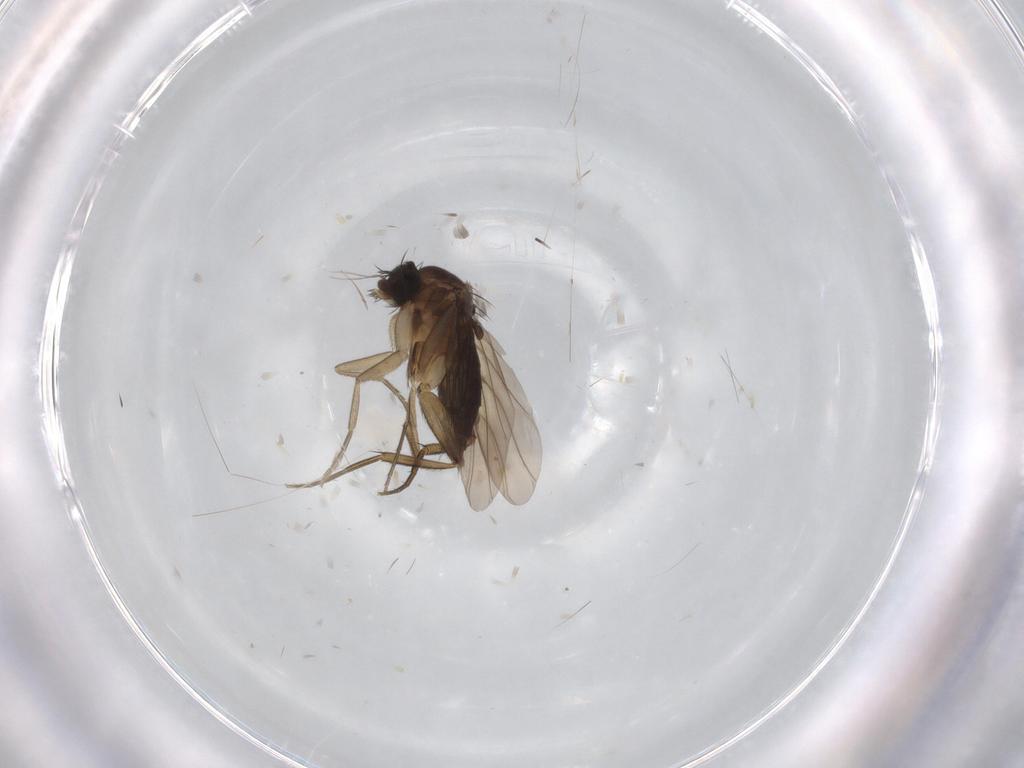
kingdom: Animalia
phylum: Arthropoda
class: Insecta
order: Diptera
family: Phoridae
